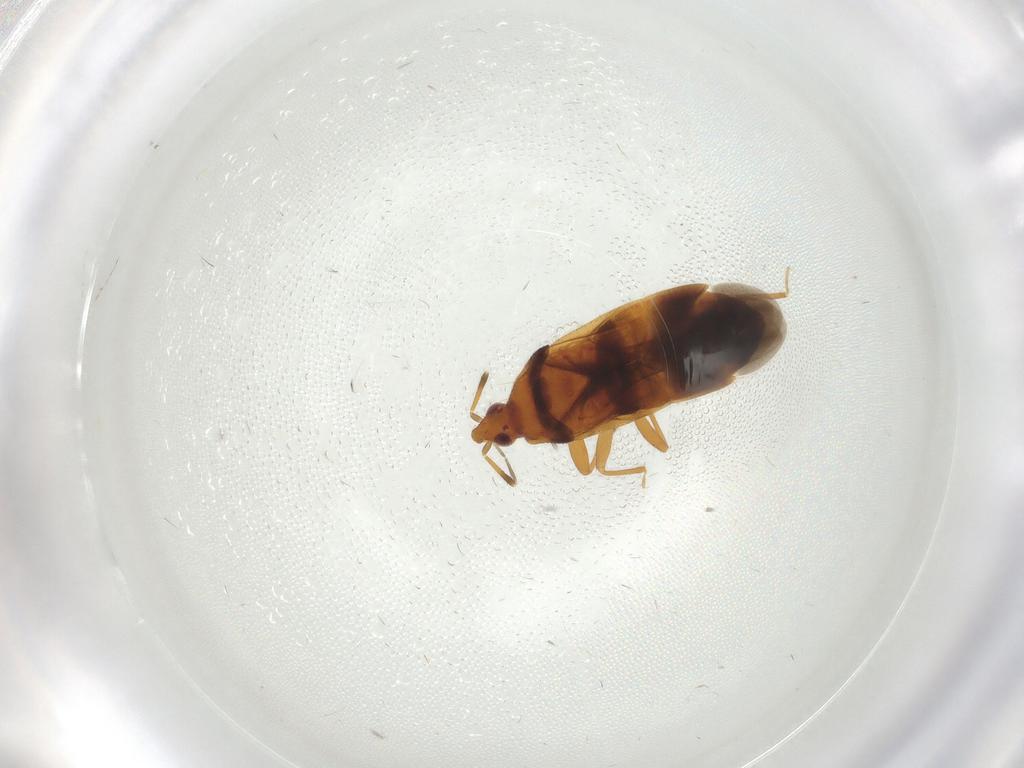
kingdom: Animalia
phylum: Arthropoda
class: Insecta
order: Hemiptera
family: Anthocoridae
